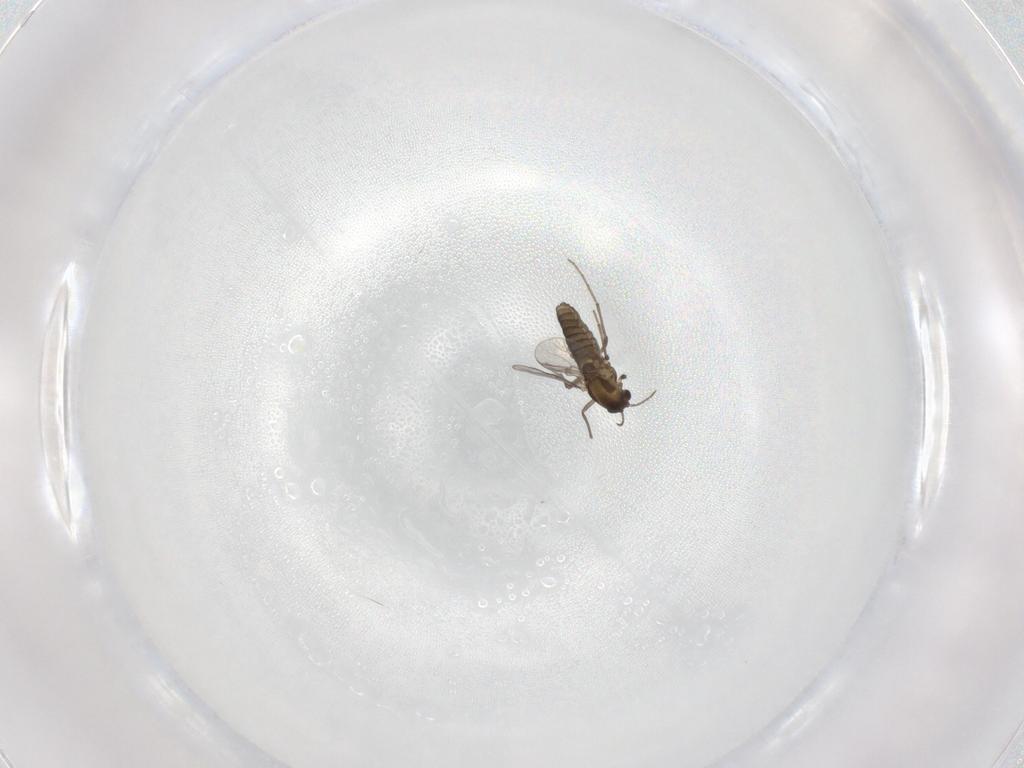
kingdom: Animalia
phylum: Arthropoda
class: Insecta
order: Diptera
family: Chironomidae
